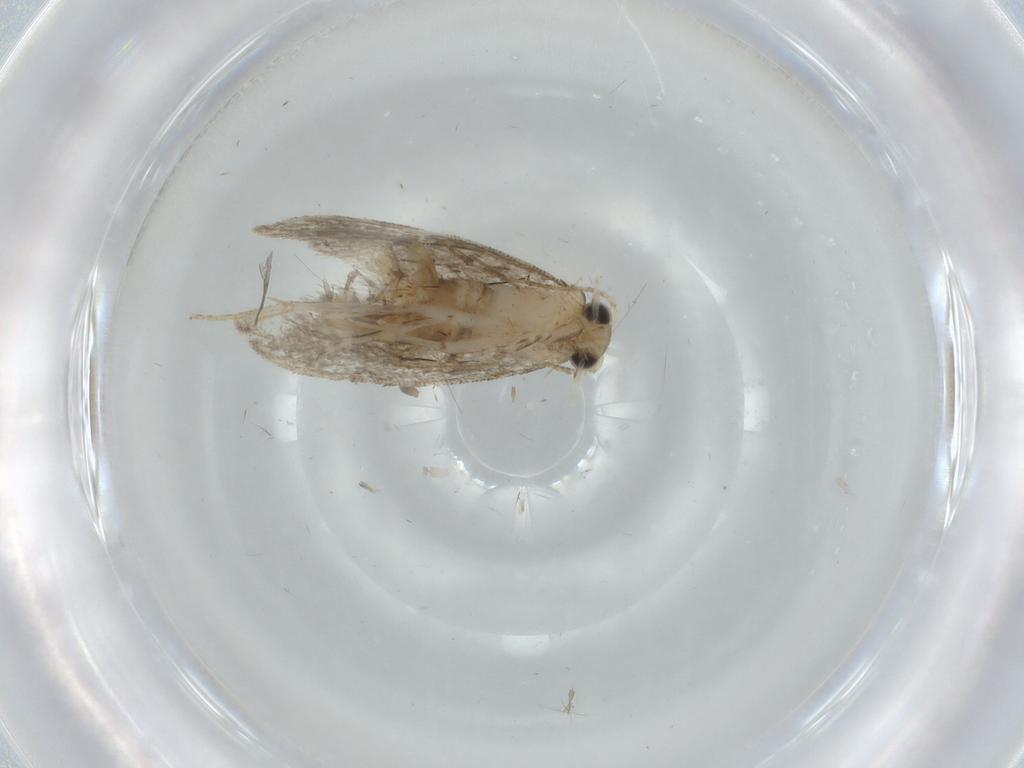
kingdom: Animalia
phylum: Arthropoda
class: Insecta
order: Lepidoptera
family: Tineidae
